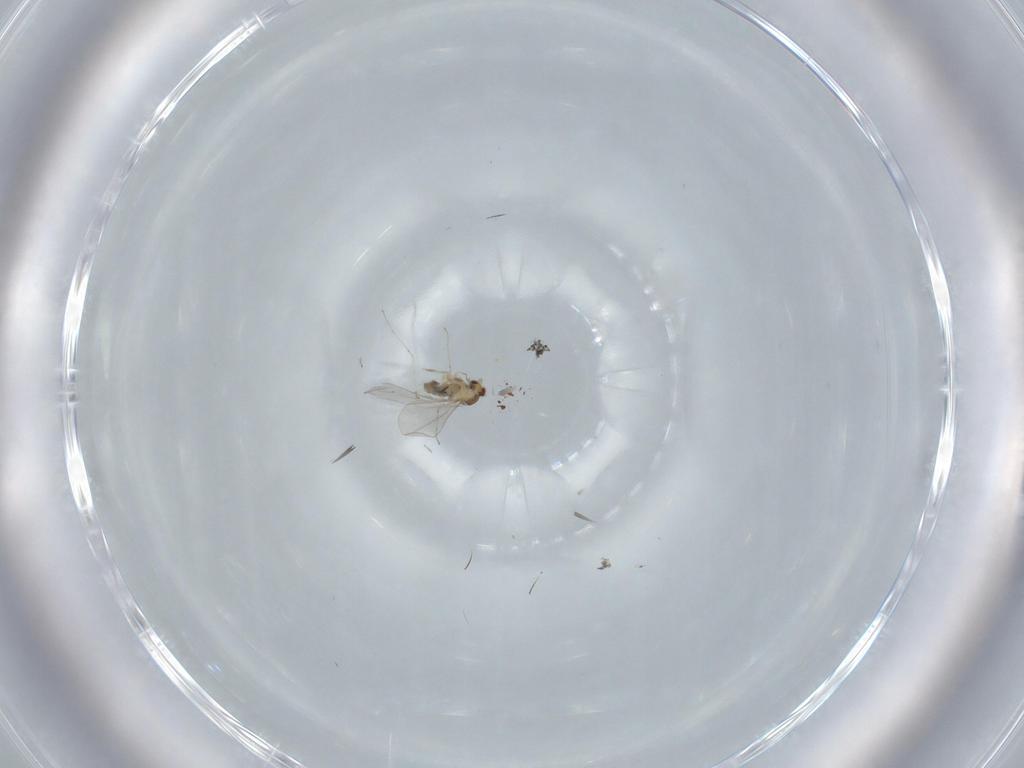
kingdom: Animalia
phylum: Arthropoda
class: Insecta
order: Diptera
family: Cecidomyiidae
